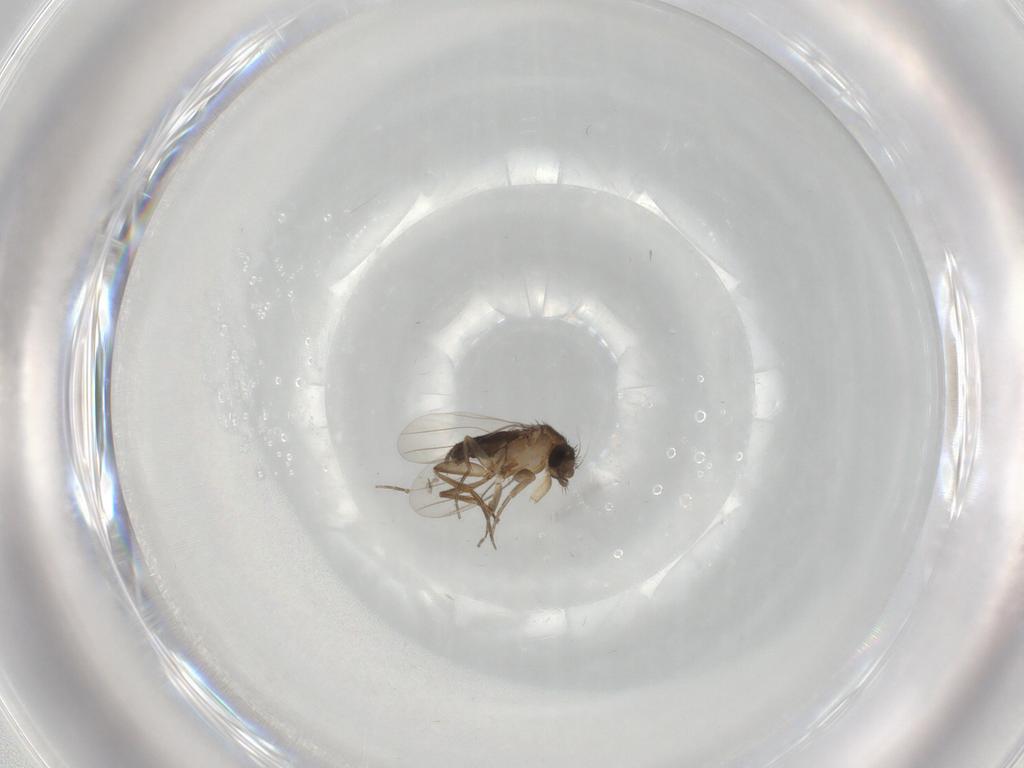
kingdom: Animalia
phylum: Arthropoda
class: Insecta
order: Diptera
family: Phoridae
